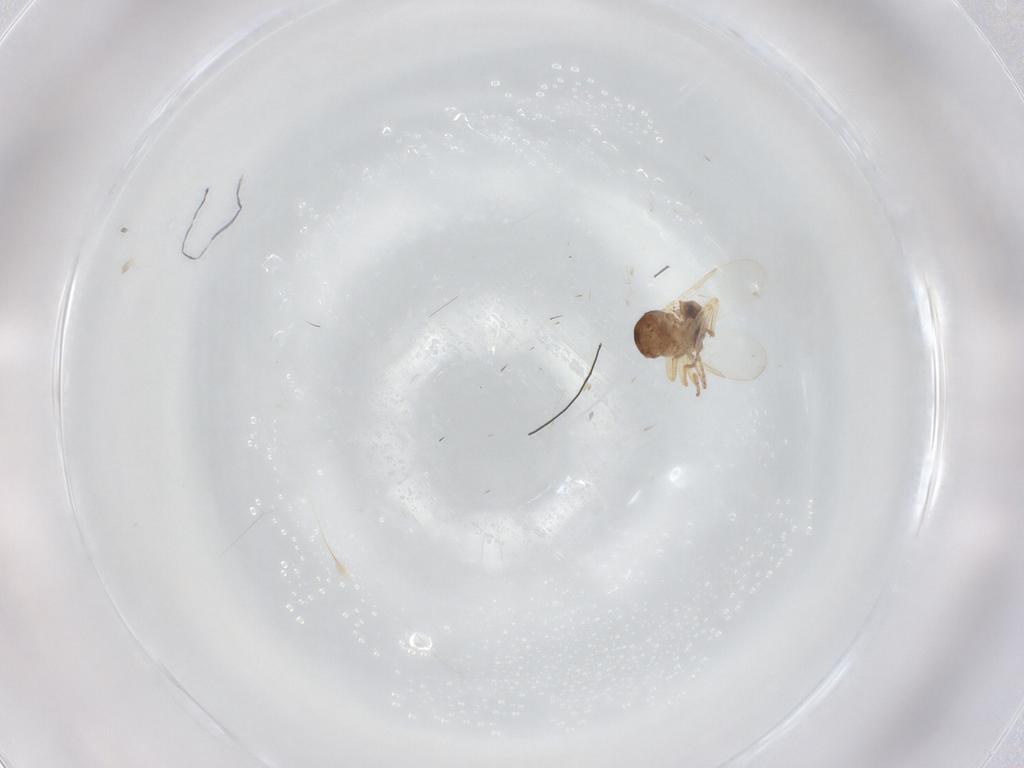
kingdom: Animalia
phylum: Arthropoda
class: Insecta
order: Diptera
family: Ceratopogonidae
